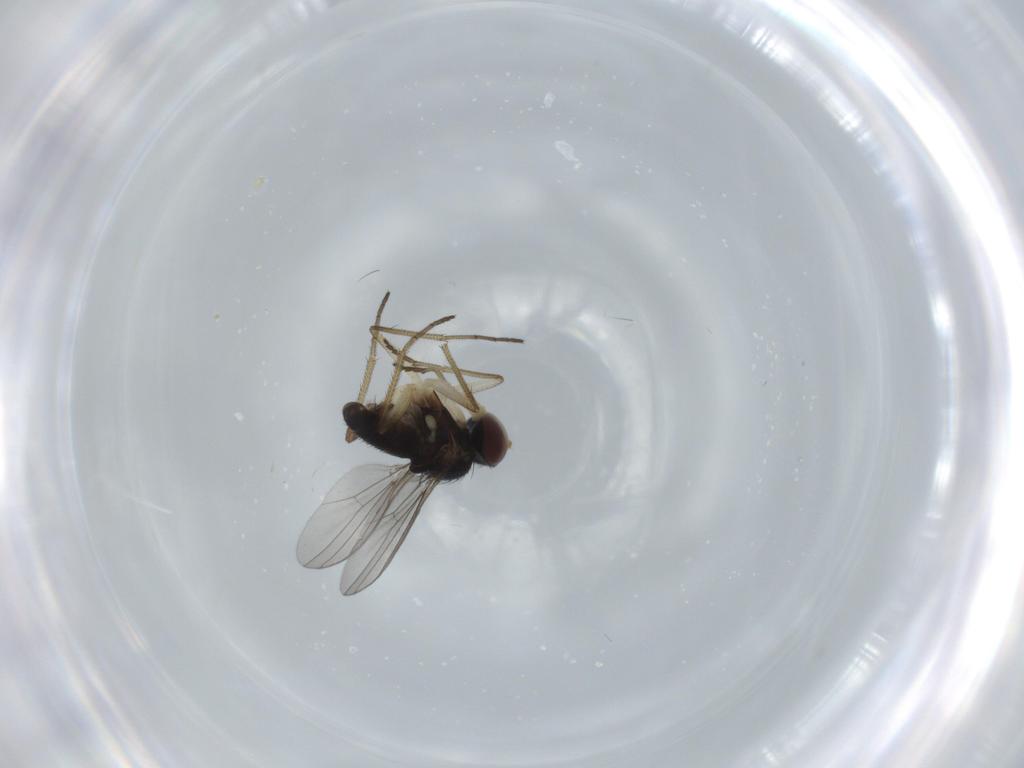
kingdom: Animalia
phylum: Arthropoda
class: Insecta
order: Diptera
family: Dolichopodidae
